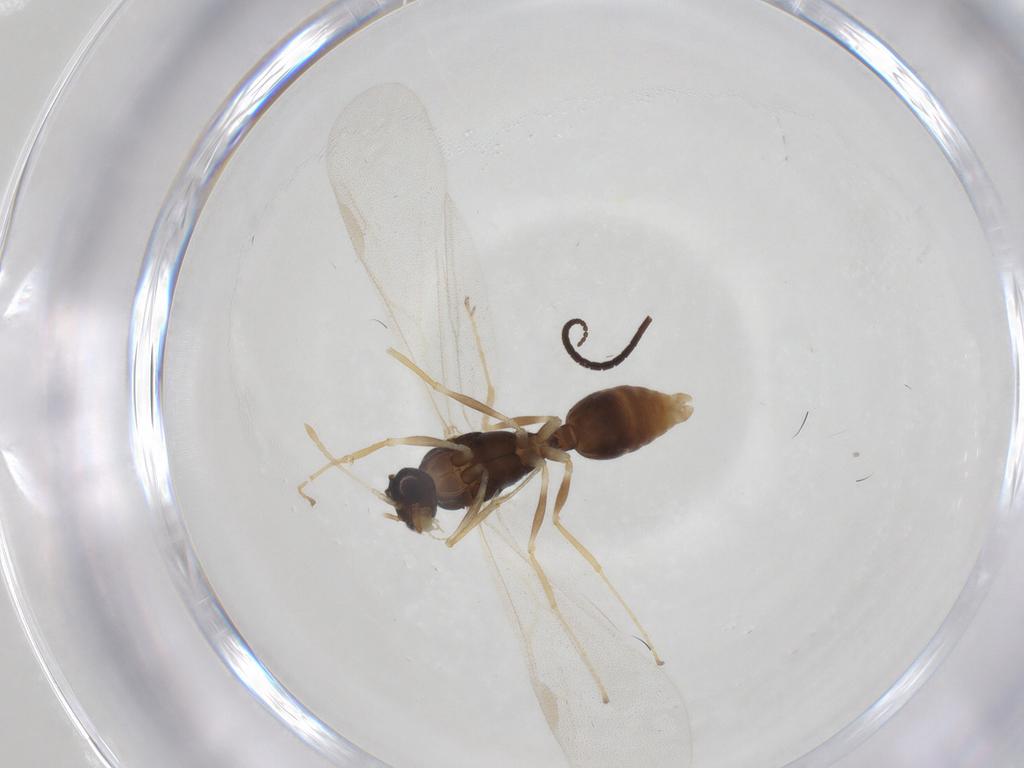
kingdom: Animalia
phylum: Arthropoda
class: Insecta
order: Hymenoptera
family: Braconidae
